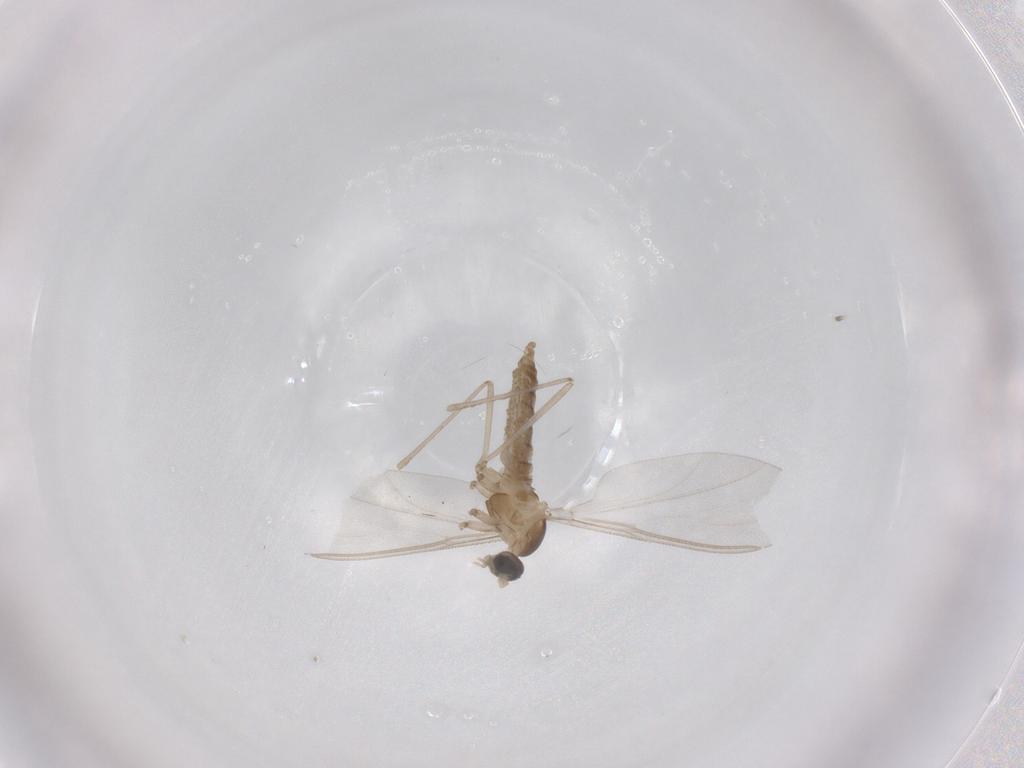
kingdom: Animalia
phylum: Arthropoda
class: Insecta
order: Diptera
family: Cecidomyiidae
